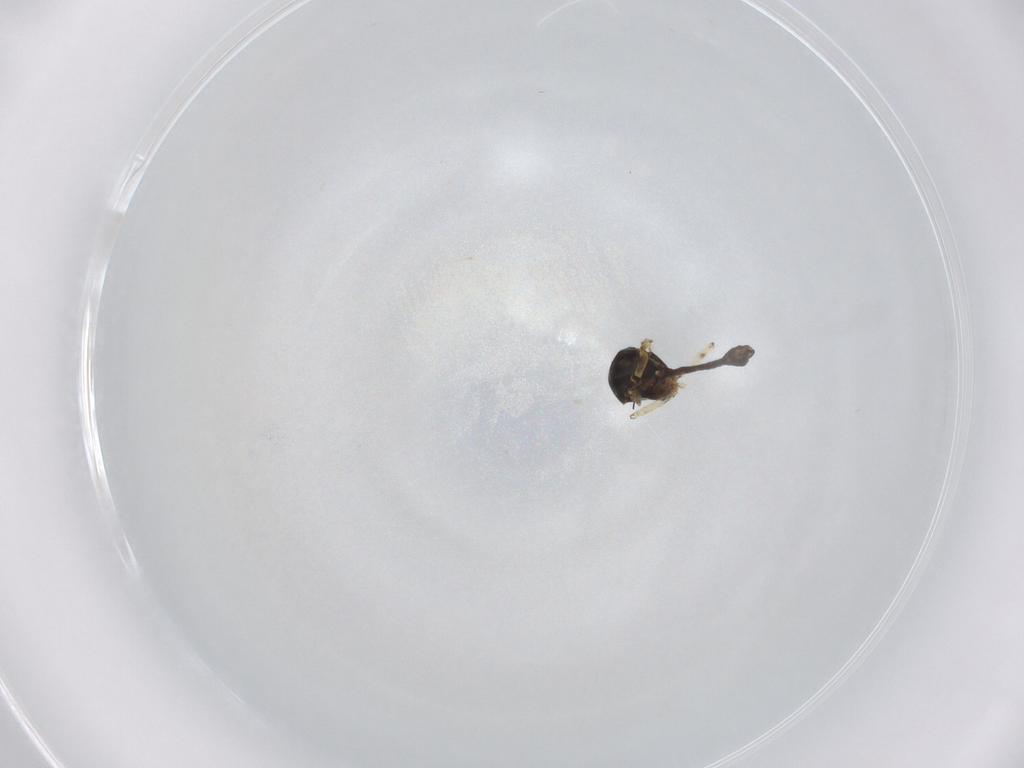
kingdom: Animalia
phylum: Arthropoda
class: Insecta
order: Diptera
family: Ceratopogonidae
